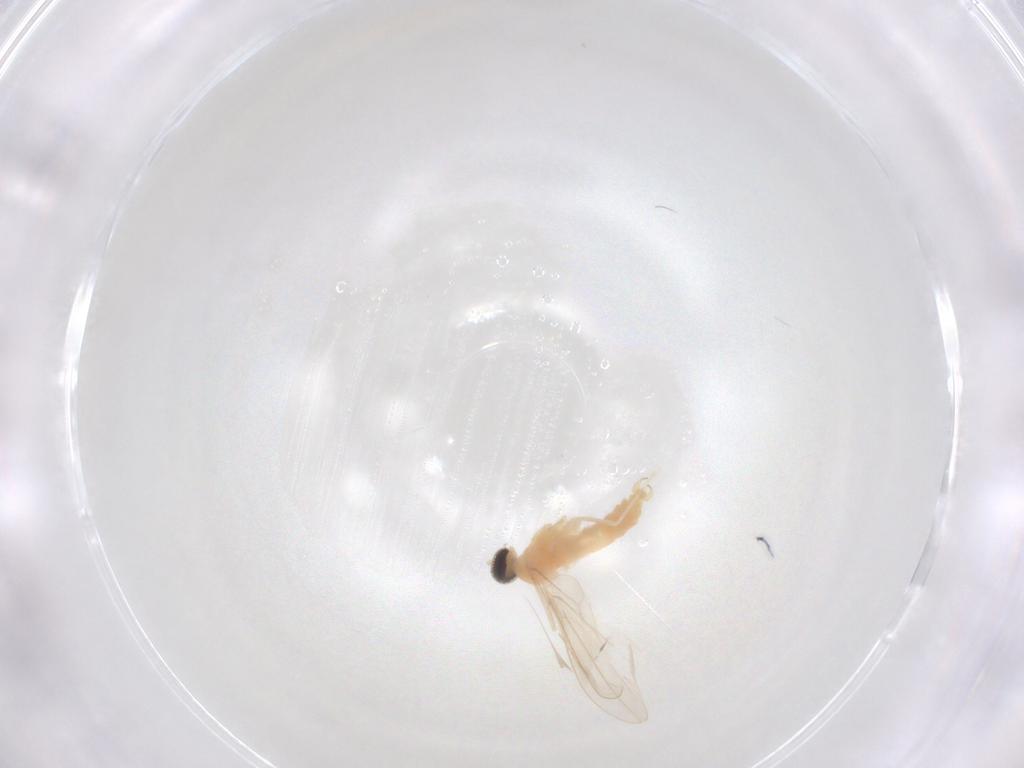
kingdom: Animalia
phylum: Arthropoda
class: Insecta
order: Diptera
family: Cecidomyiidae
